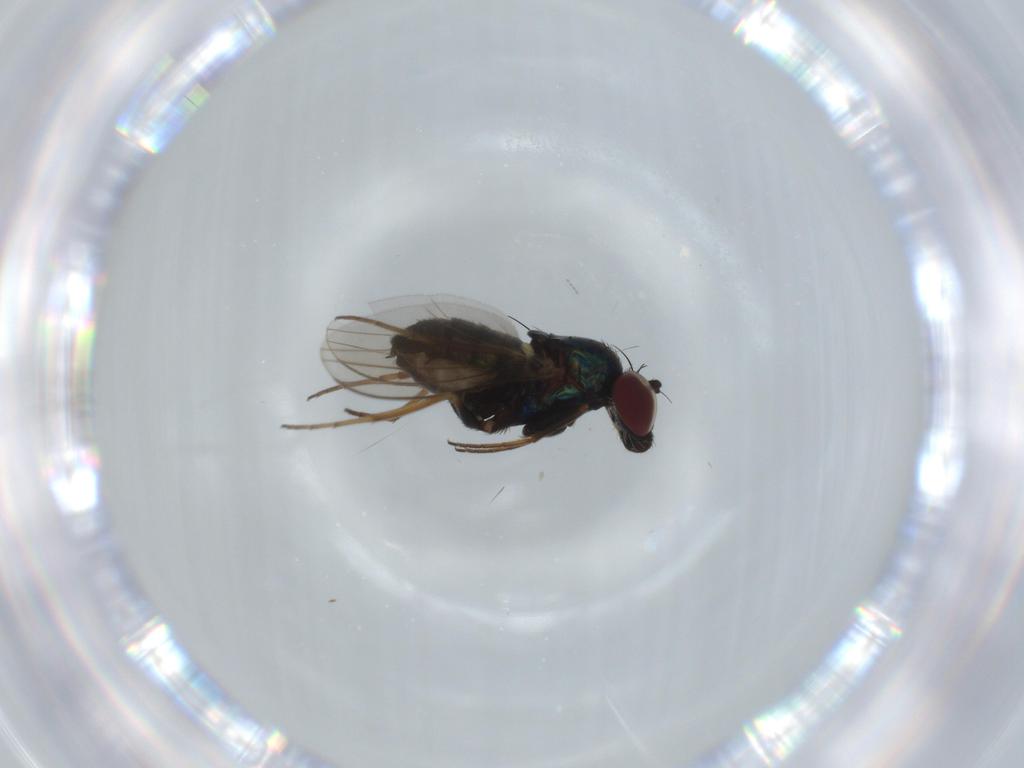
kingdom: Animalia
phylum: Arthropoda
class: Insecta
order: Diptera
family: Dolichopodidae
